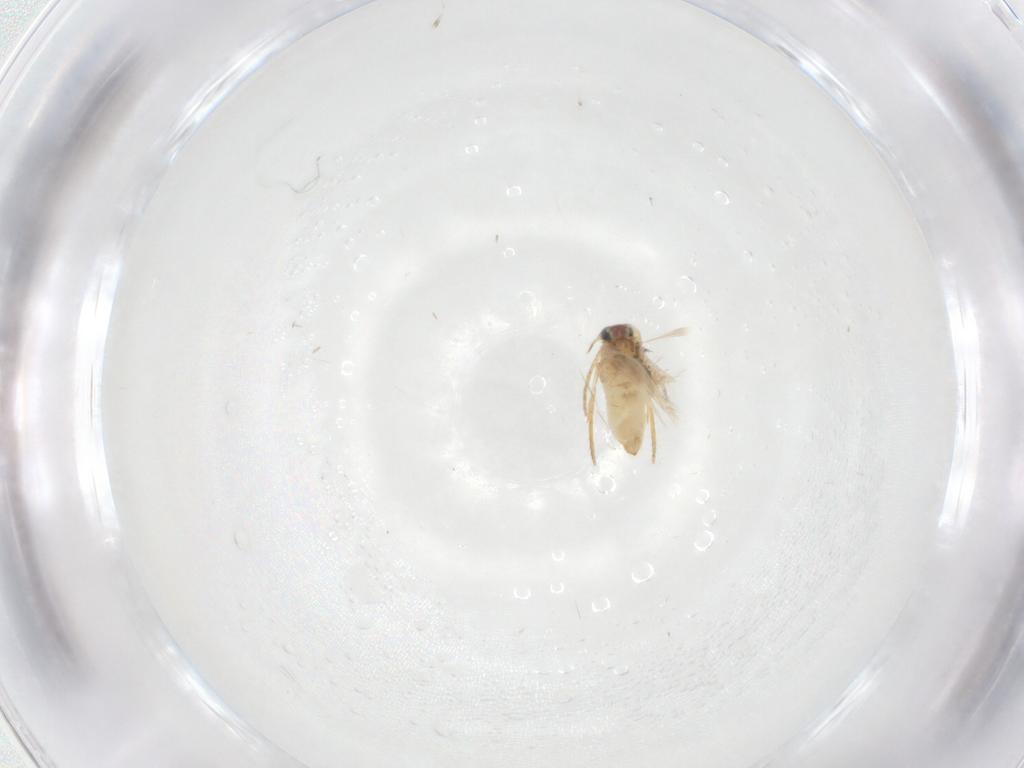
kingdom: Animalia
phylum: Arthropoda
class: Insecta
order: Lepidoptera
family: Crambidae
